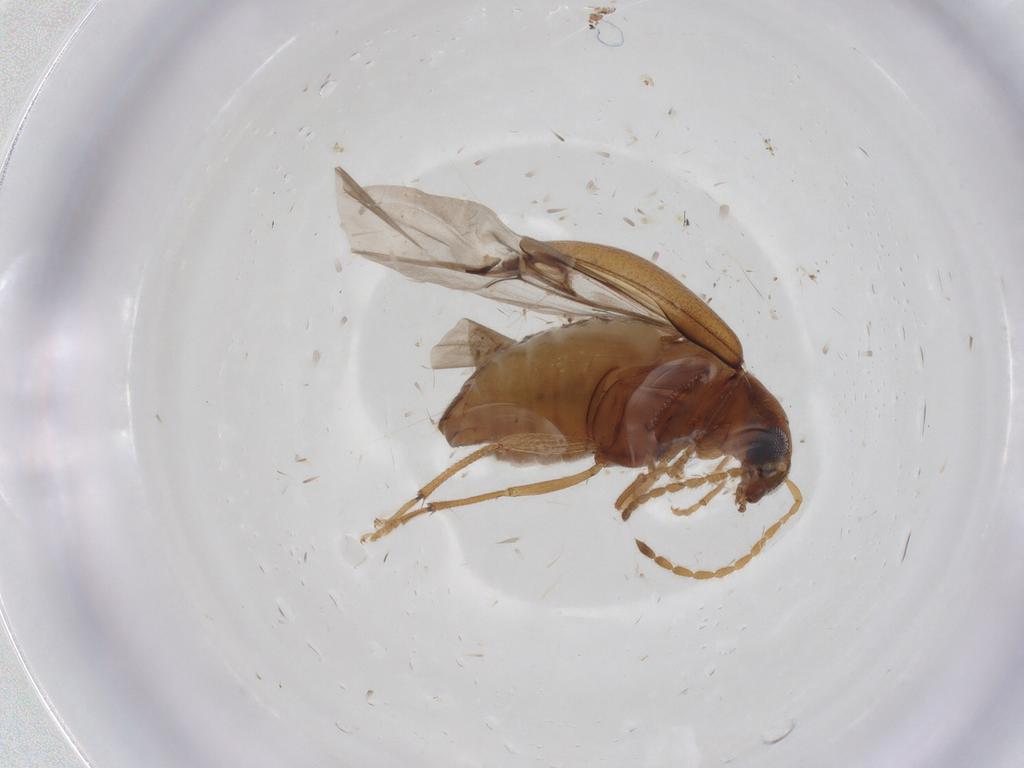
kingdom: Animalia
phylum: Arthropoda
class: Insecta
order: Coleoptera
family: Chrysomelidae
